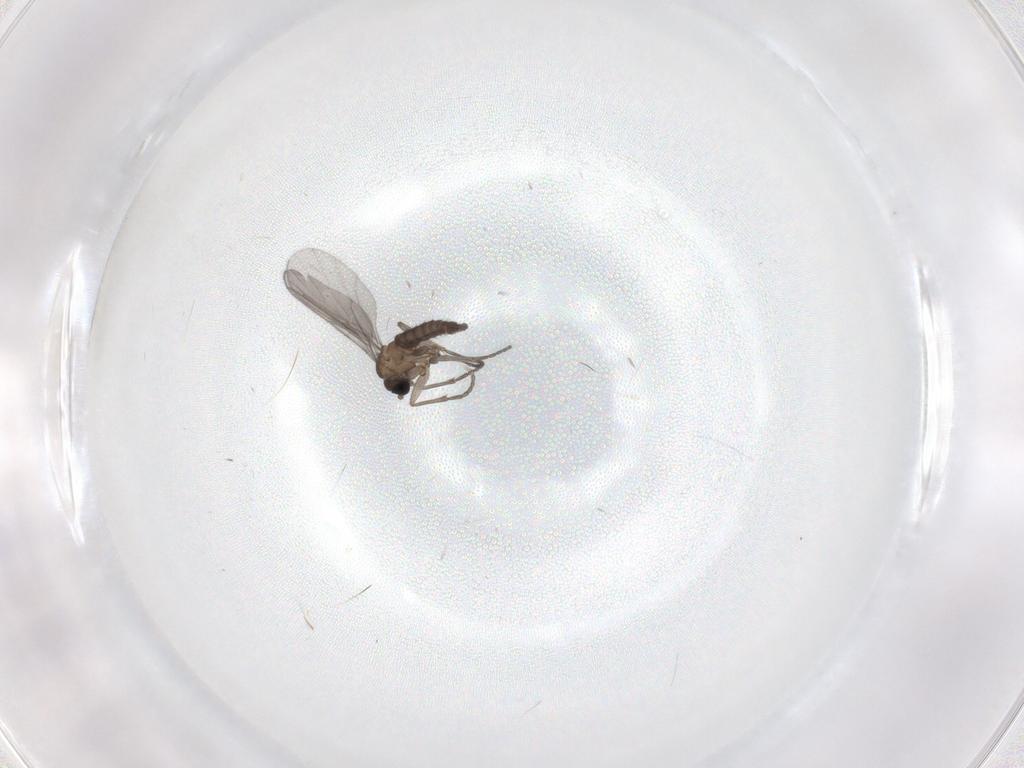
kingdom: Animalia
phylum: Arthropoda
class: Insecta
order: Diptera
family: Sciaridae
